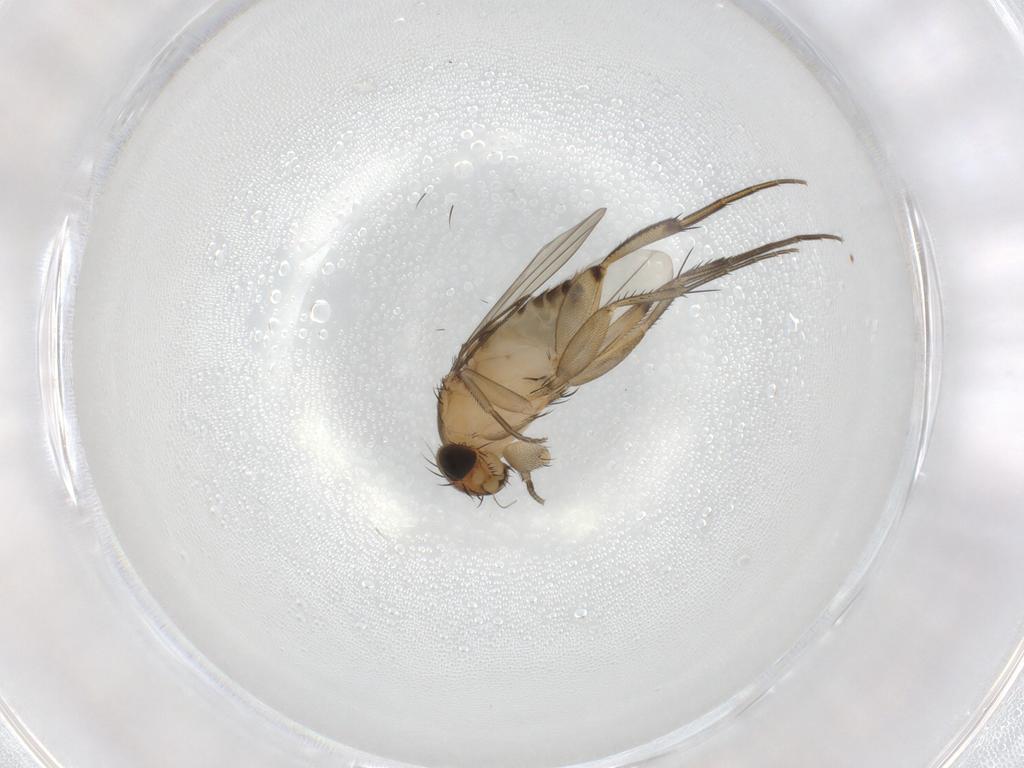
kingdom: Animalia
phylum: Arthropoda
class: Insecta
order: Diptera
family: Phoridae
